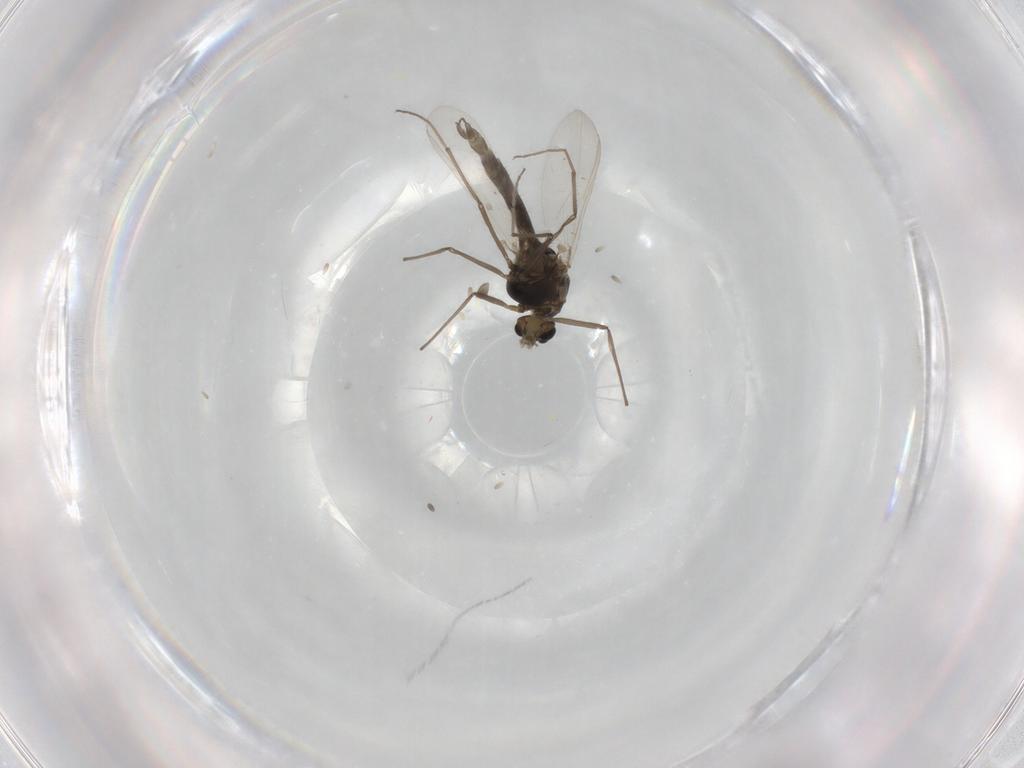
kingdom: Animalia
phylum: Arthropoda
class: Insecta
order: Diptera
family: Chironomidae
